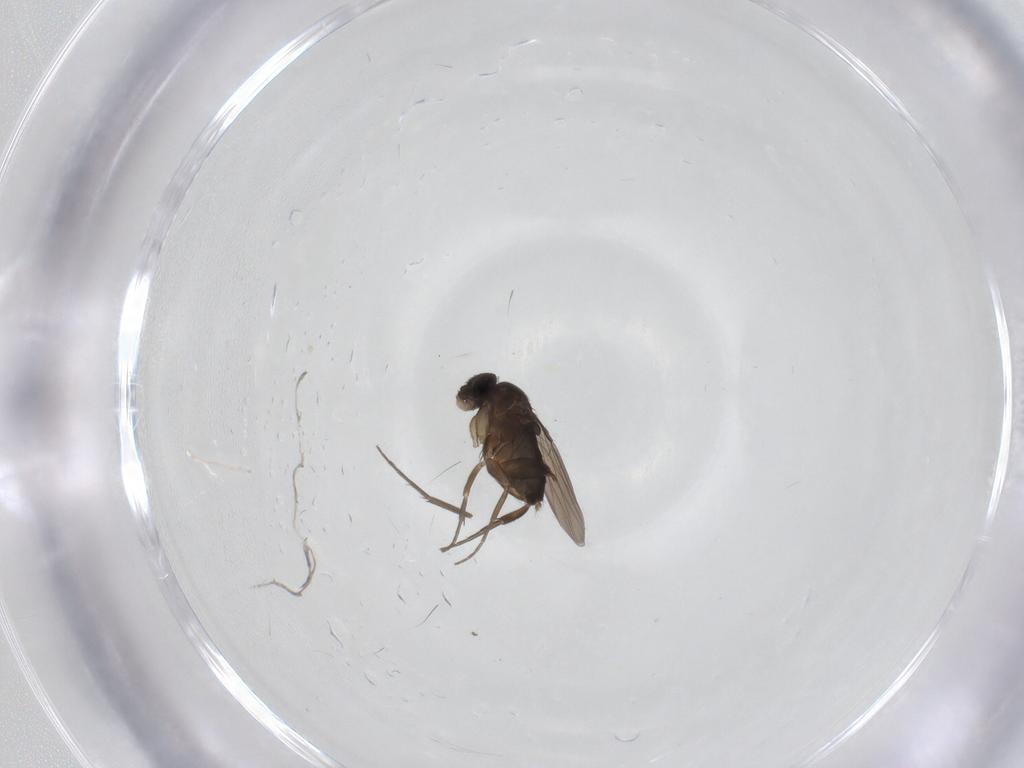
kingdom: Animalia
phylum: Arthropoda
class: Insecta
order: Diptera
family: Phoridae
